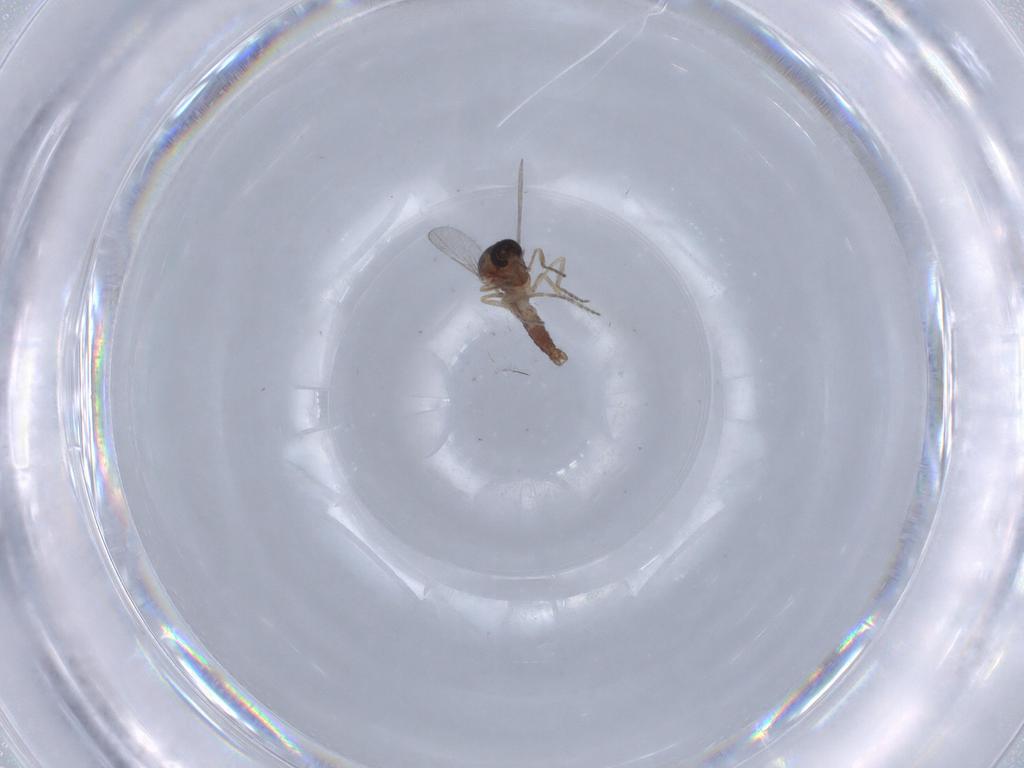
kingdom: Animalia
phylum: Arthropoda
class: Insecta
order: Diptera
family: Ceratopogonidae
